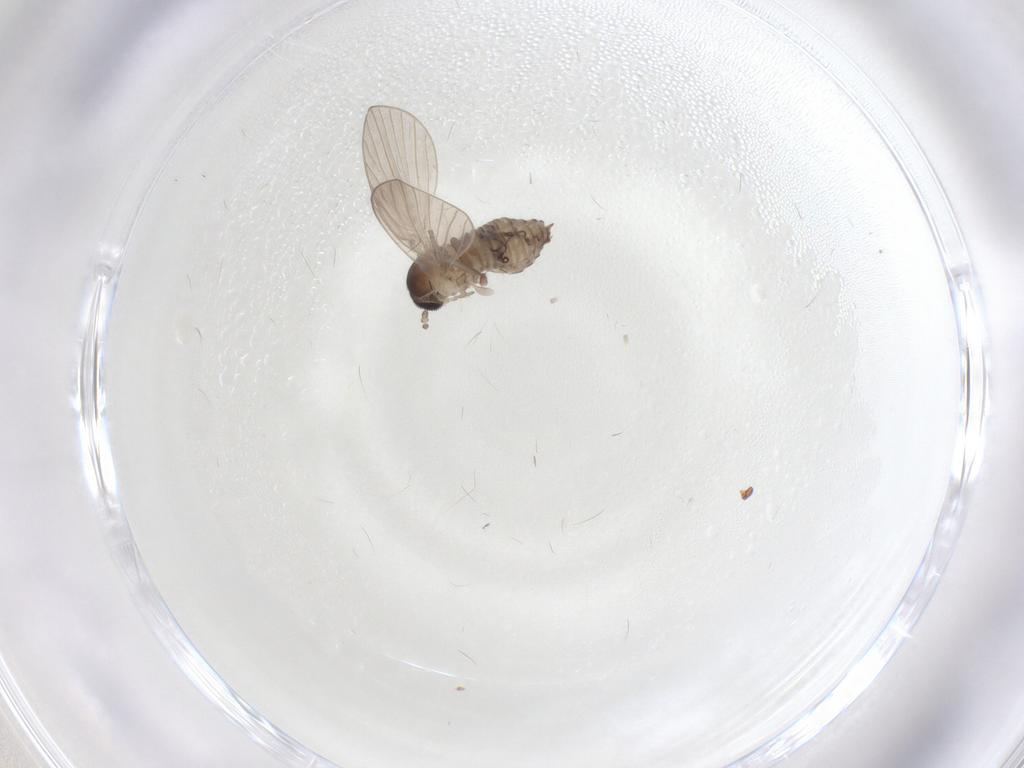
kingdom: Animalia
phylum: Arthropoda
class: Insecta
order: Diptera
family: Psychodidae
